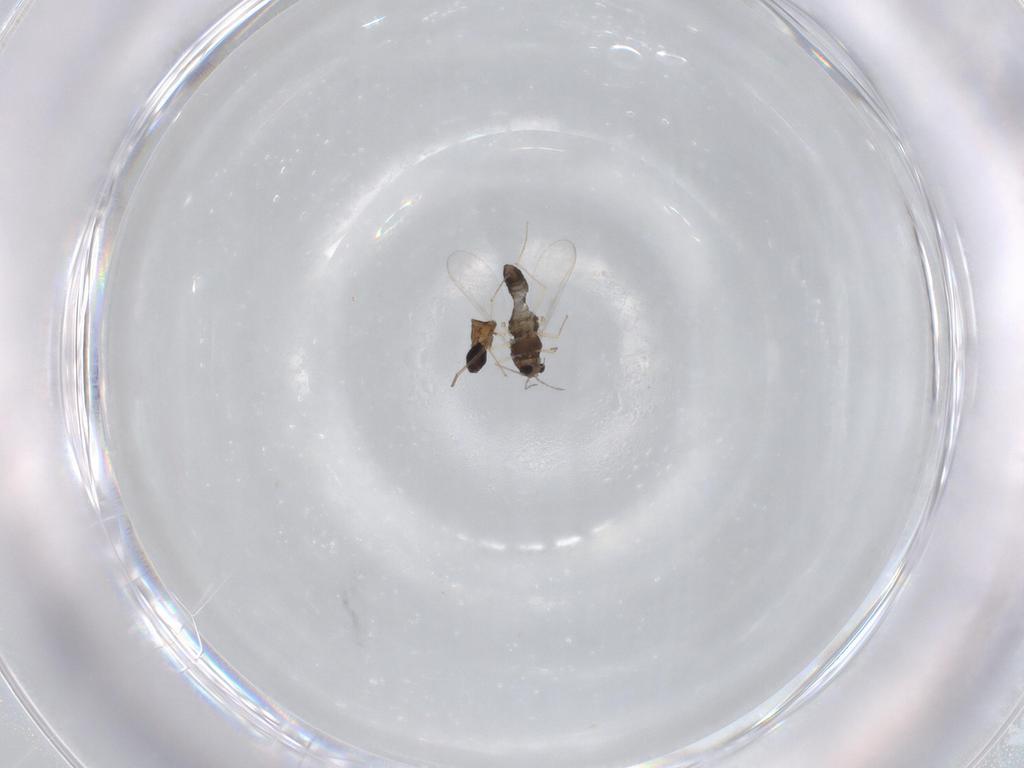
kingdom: Animalia
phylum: Arthropoda
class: Insecta
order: Diptera
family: Chironomidae
